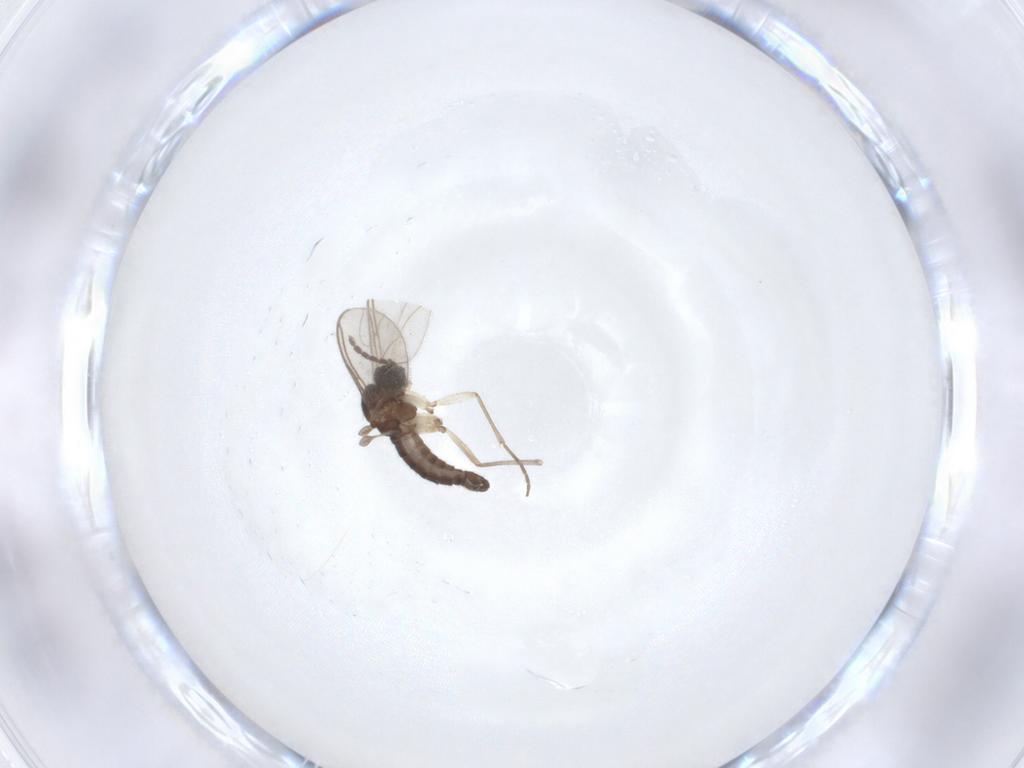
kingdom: Animalia
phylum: Arthropoda
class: Insecta
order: Diptera
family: Sciaridae
